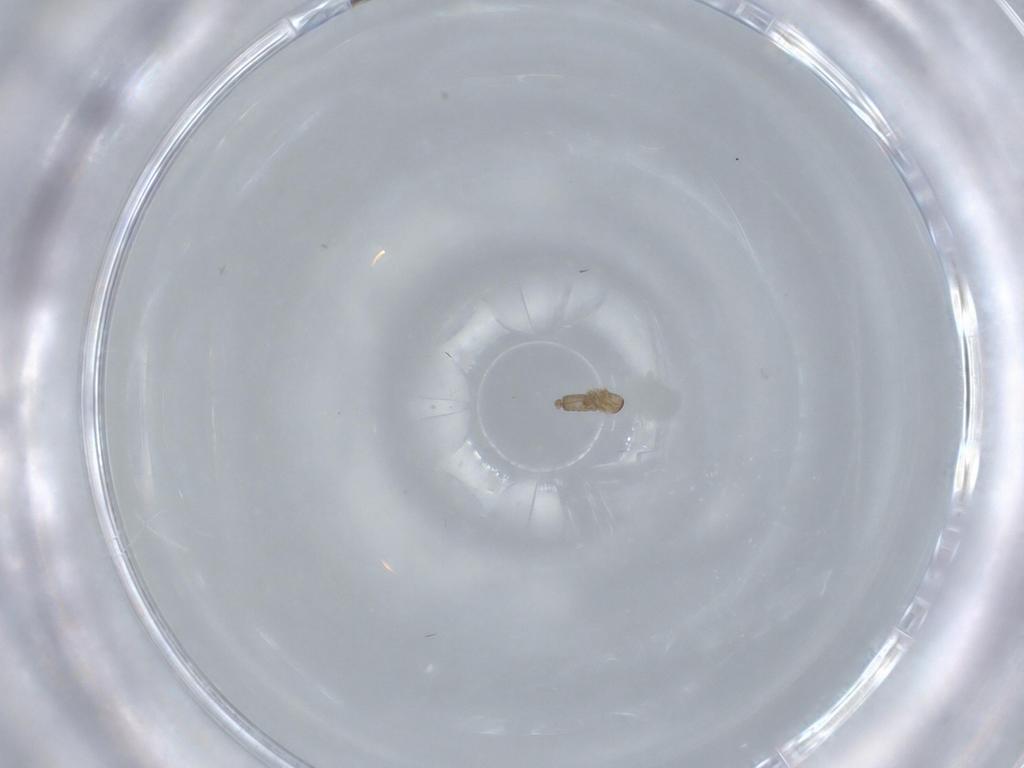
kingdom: Animalia
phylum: Arthropoda
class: Insecta
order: Diptera
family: Cecidomyiidae
